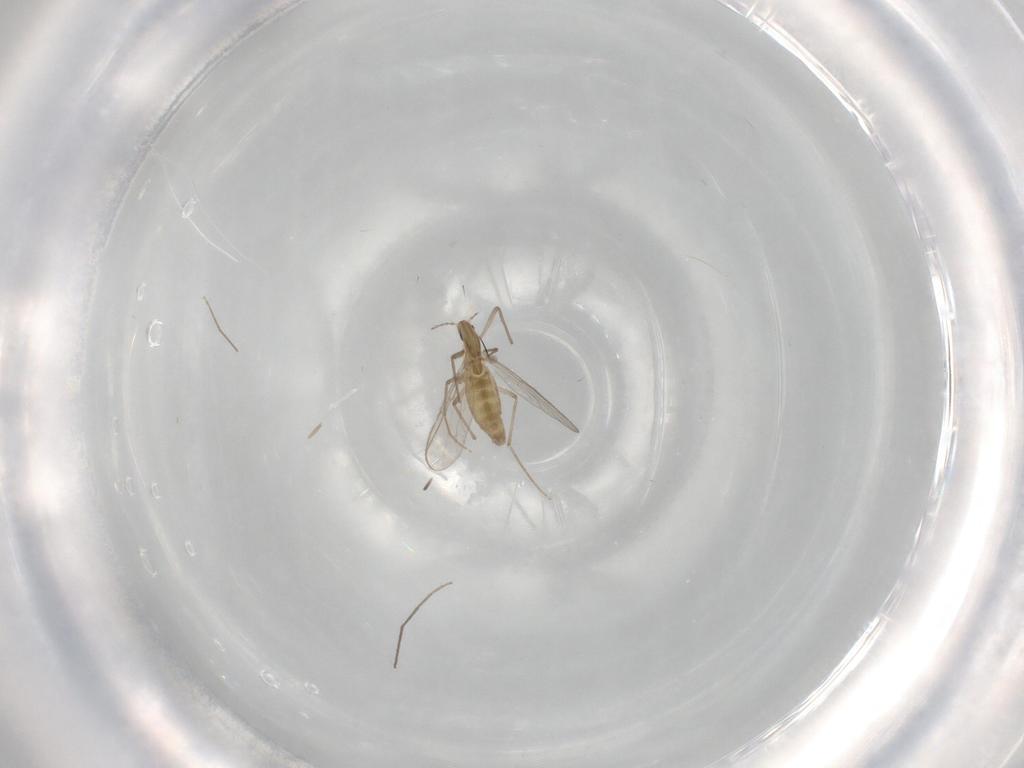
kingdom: Animalia
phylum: Arthropoda
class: Insecta
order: Diptera
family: Chironomidae
